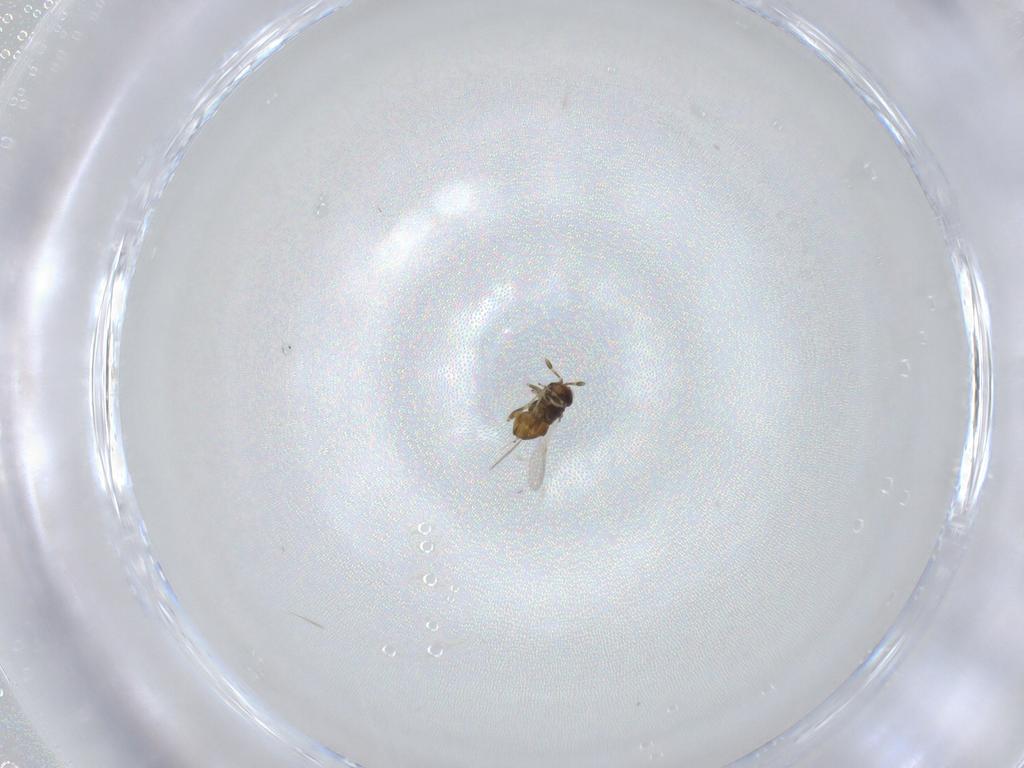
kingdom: Animalia
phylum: Arthropoda
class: Insecta
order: Hymenoptera
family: Encyrtidae
